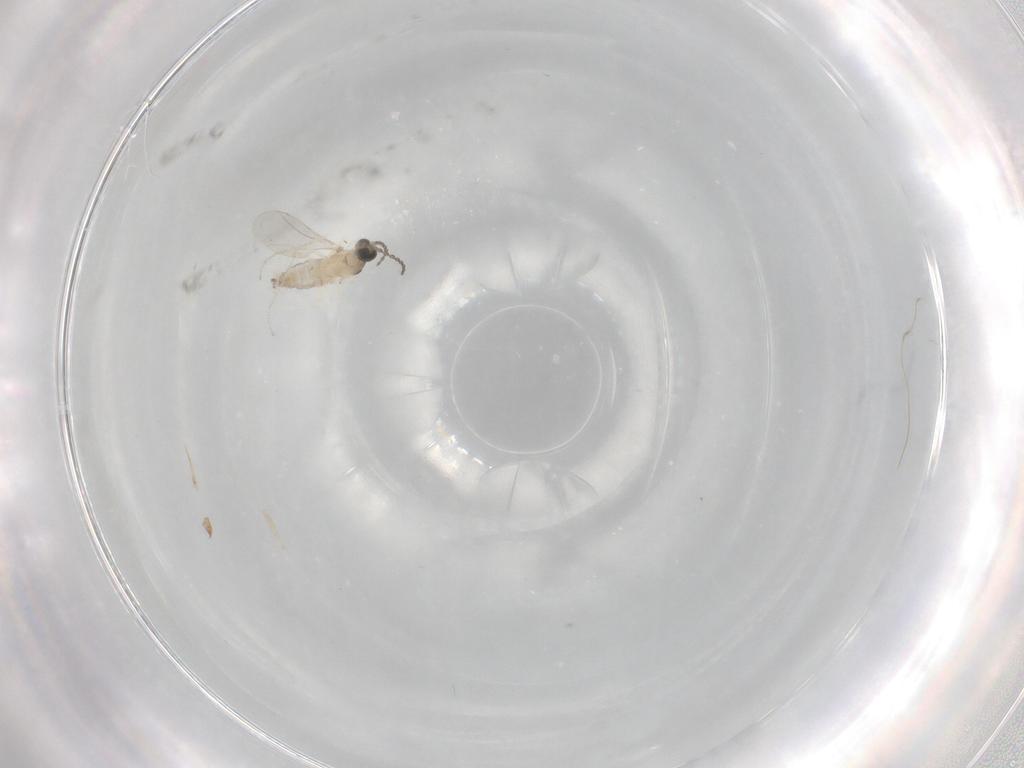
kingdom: Animalia
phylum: Arthropoda
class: Insecta
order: Diptera
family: Cecidomyiidae
